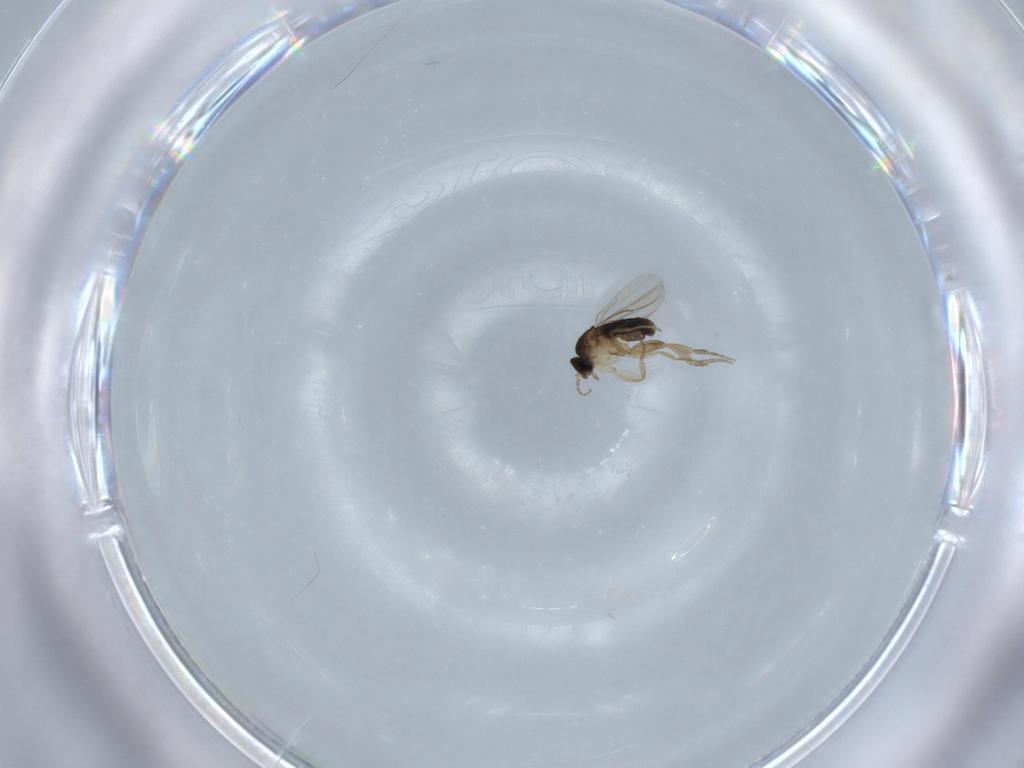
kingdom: Animalia
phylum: Arthropoda
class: Insecta
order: Diptera
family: Phoridae
